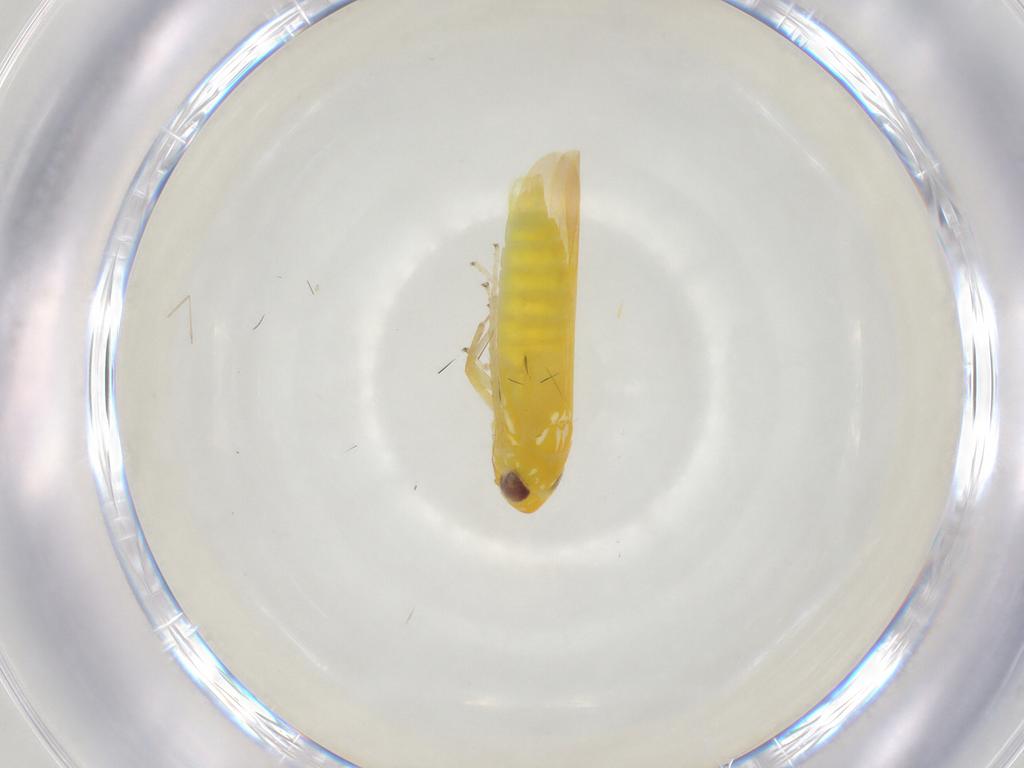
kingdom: Animalia
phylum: Arthropoda
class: Insecta
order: Hemiptera
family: Cicadellidae
